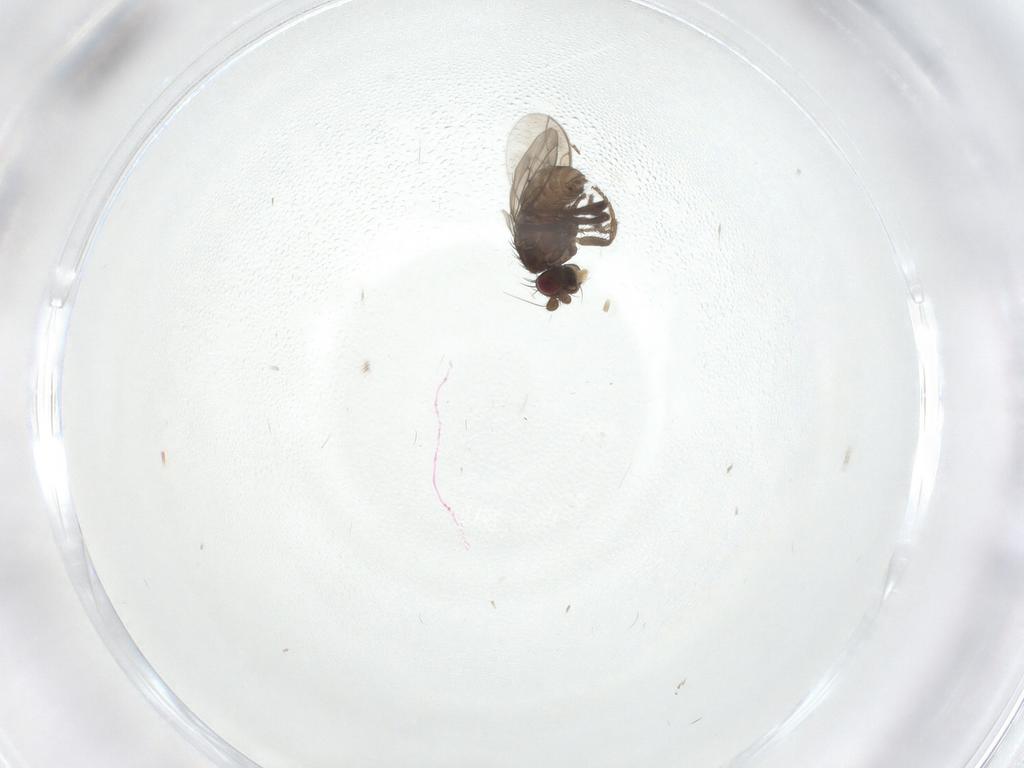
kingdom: Animalia
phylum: Arthropoda
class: Insecta
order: Diptera
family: Sphaeroceridae
